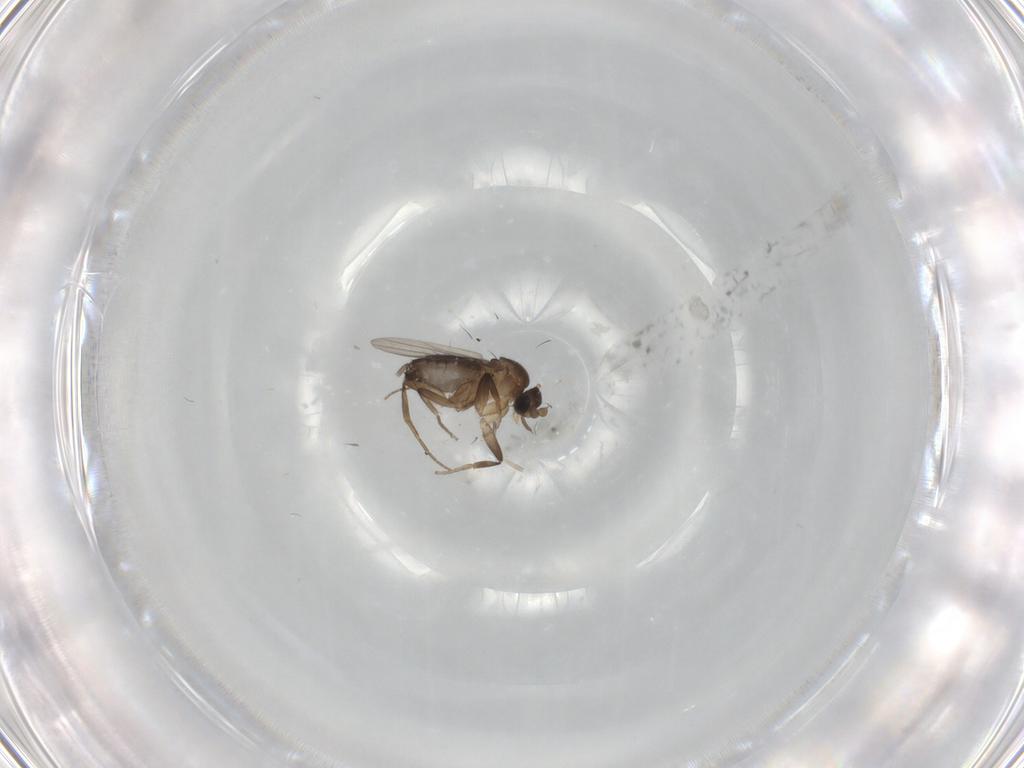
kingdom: Animalia
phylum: Arthropoda
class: Insecta
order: Diptera
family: Phoridae
